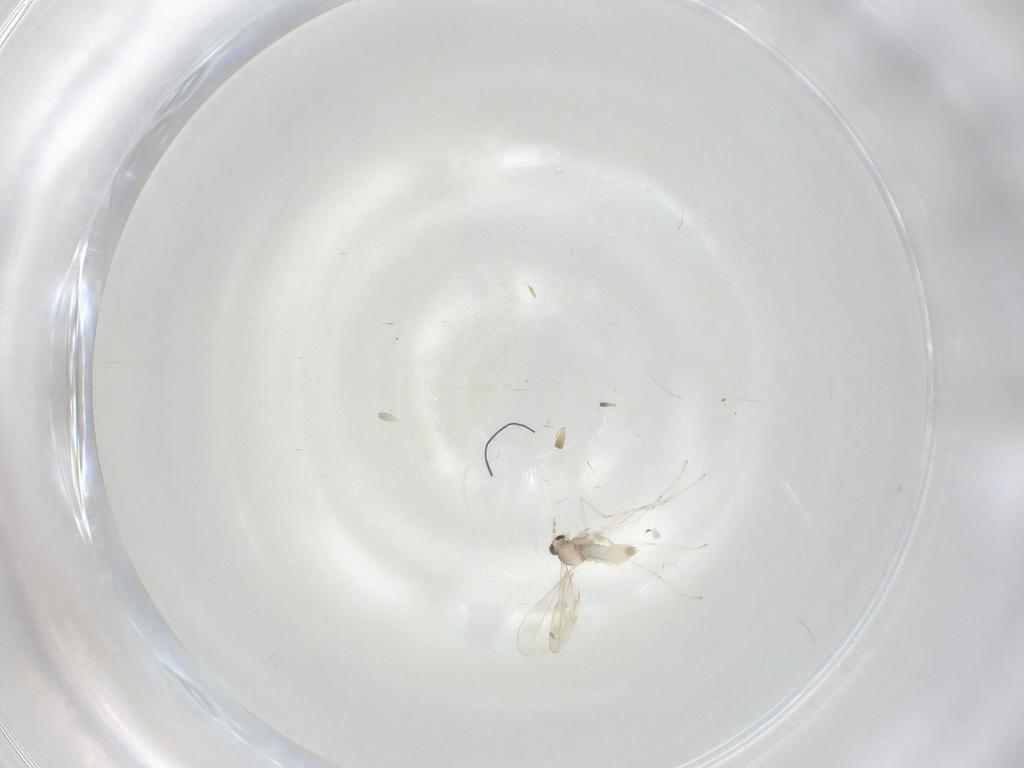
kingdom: Animalia
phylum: Arthropoda
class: Insecta
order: Diptera
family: Cecidomyiidae
